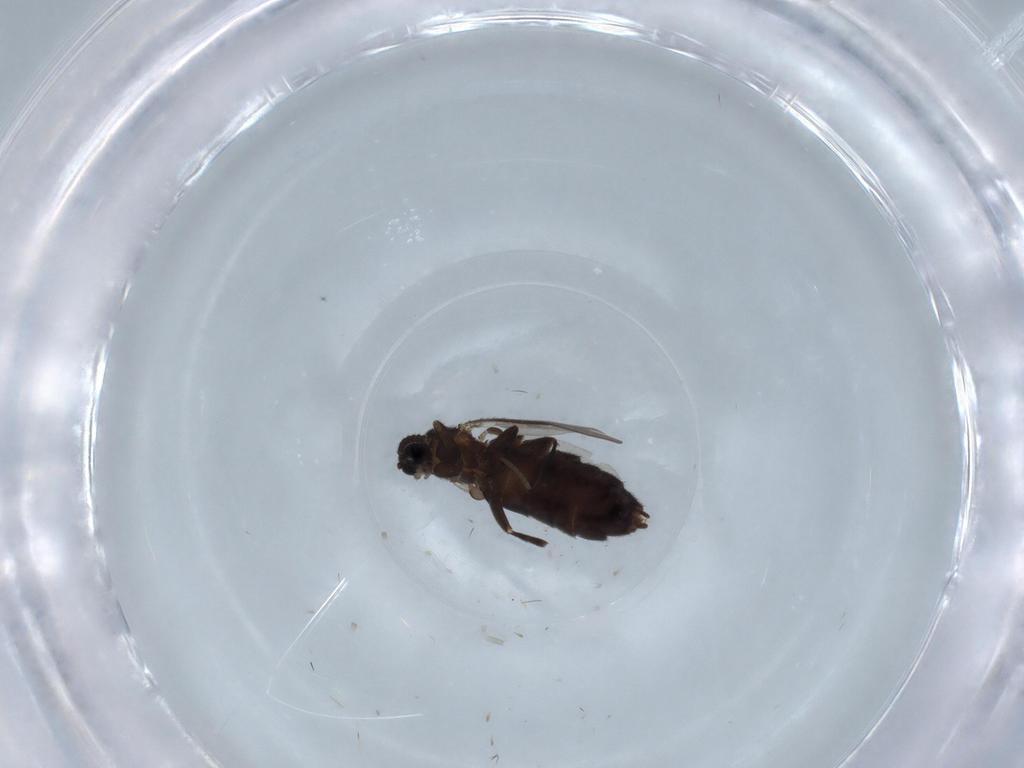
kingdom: Animalia
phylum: Arthropoda
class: Insecta
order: Diptera
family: Scatopsidae
